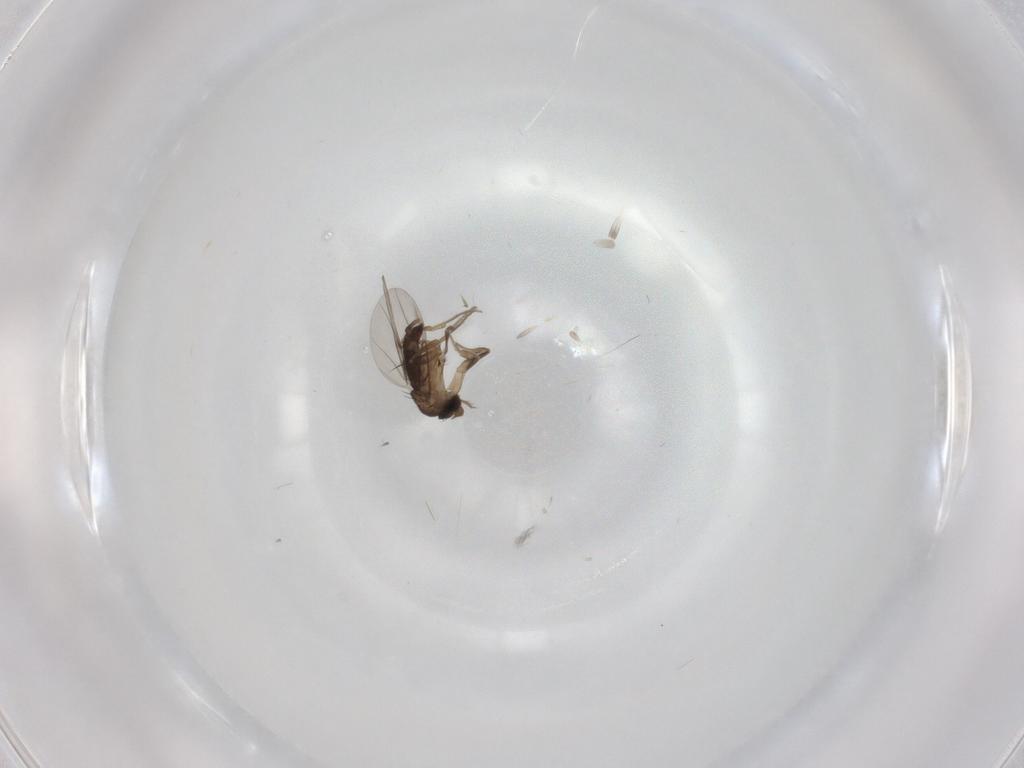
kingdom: Animalia
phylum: Arthropoda
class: Insecta
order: Diptera
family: Phoridae
